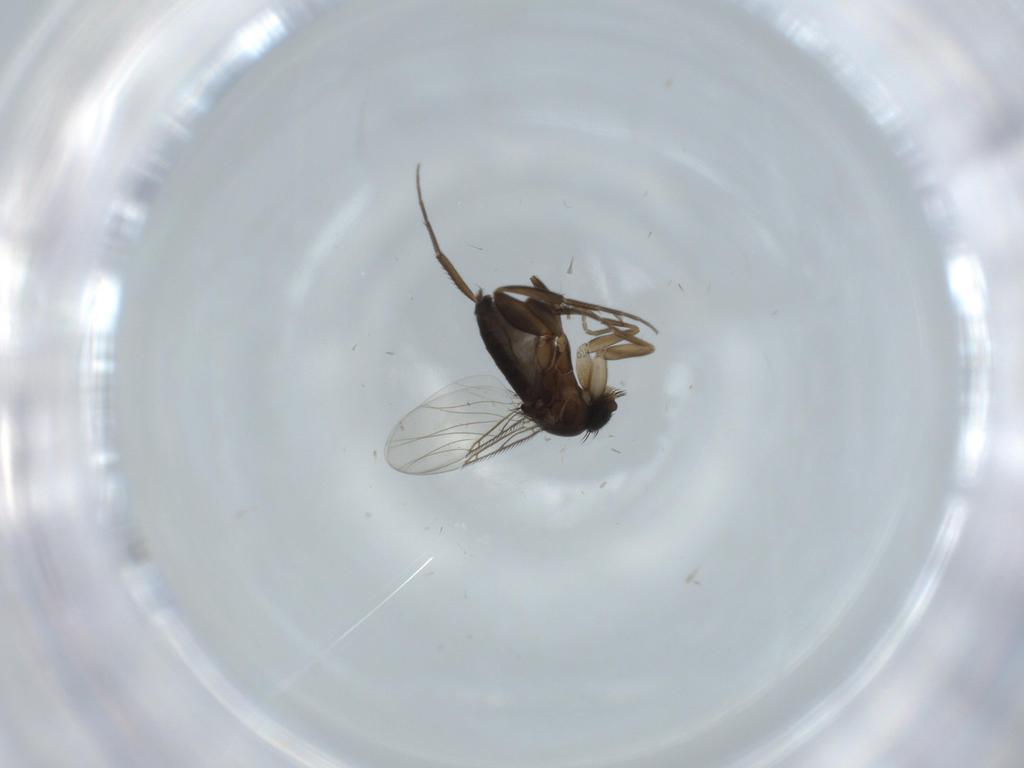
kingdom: Animalia
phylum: Arthropoda
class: Insecta
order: Diptera
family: Phoridae
